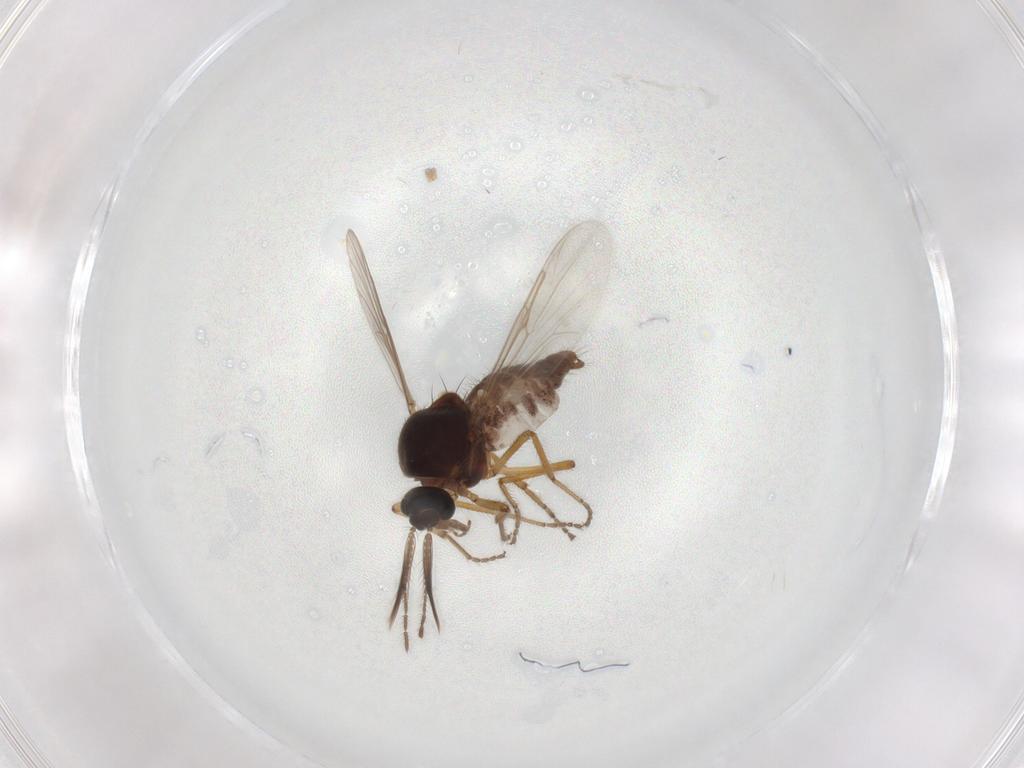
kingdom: Animalia
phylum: Arthropoda
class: Insecta
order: Diptera
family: Ceratopogonidae
